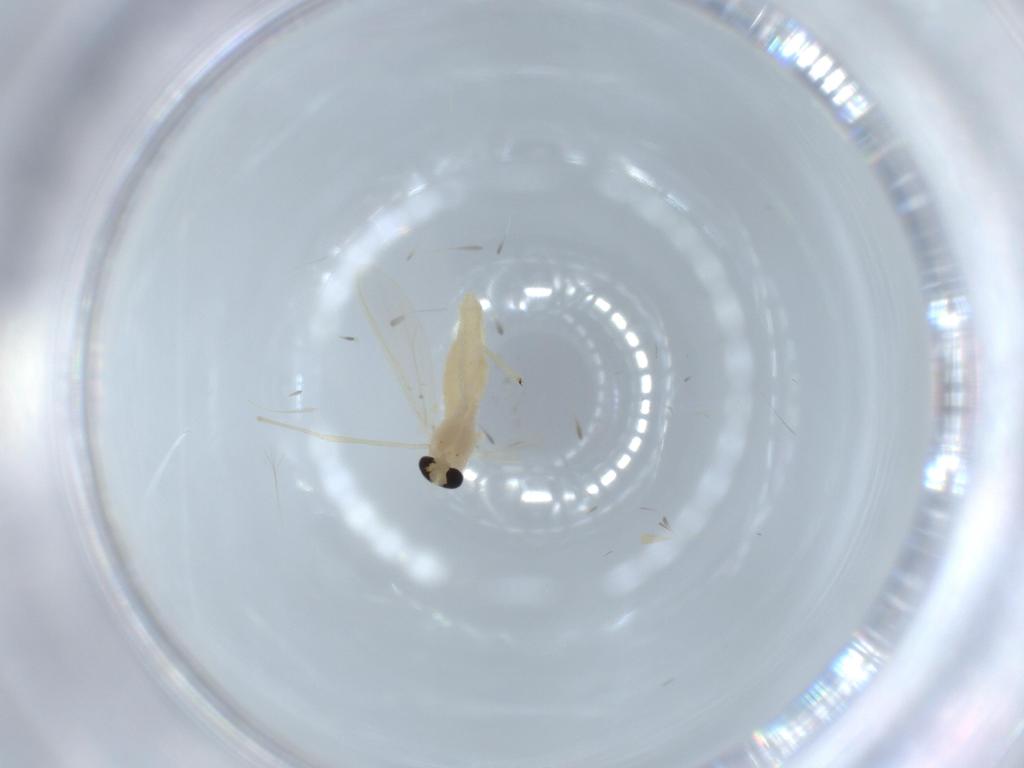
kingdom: Animalia
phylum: Arthropoda
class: Insecta
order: Diptera
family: Chironomidae
